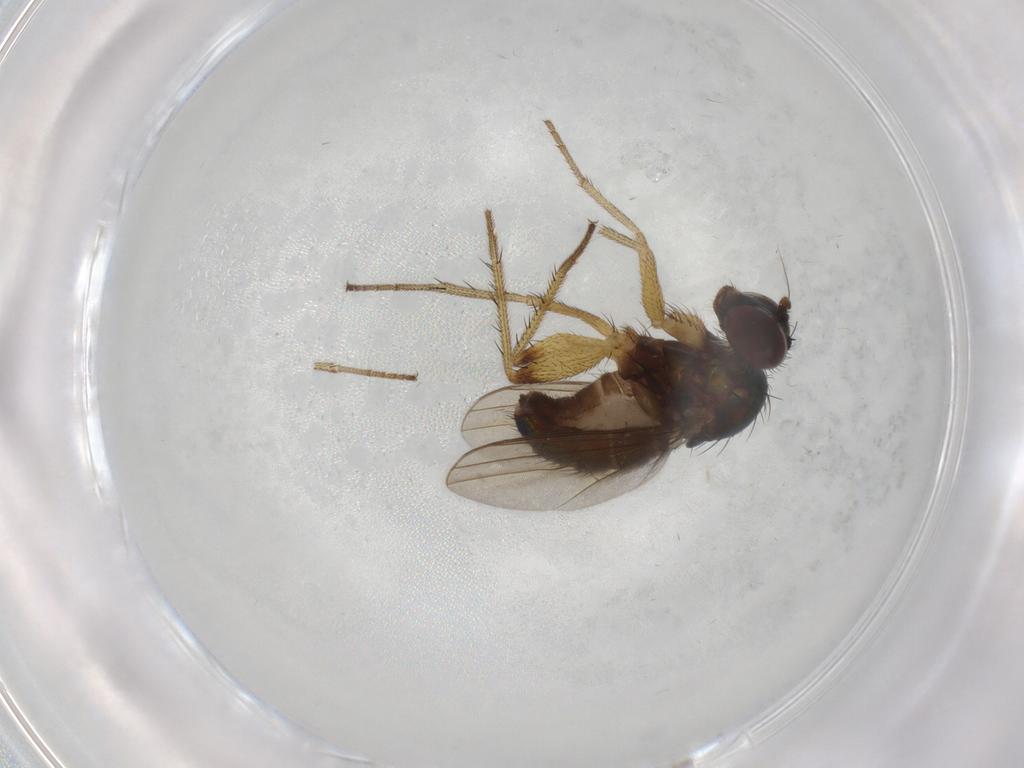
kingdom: Animalia
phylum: Arthropoda
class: Insecta
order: Diptera
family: Dolichopodidae
